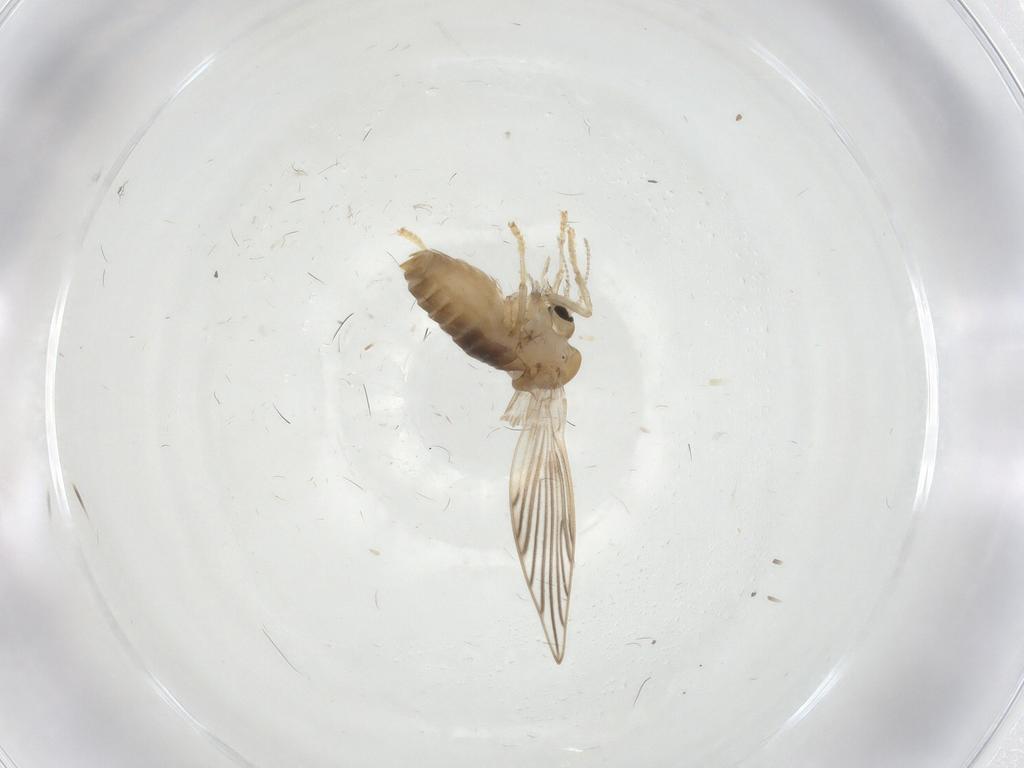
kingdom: Animalia
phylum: Arthropoda
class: Insecta
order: Diptera
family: Psychodidae
